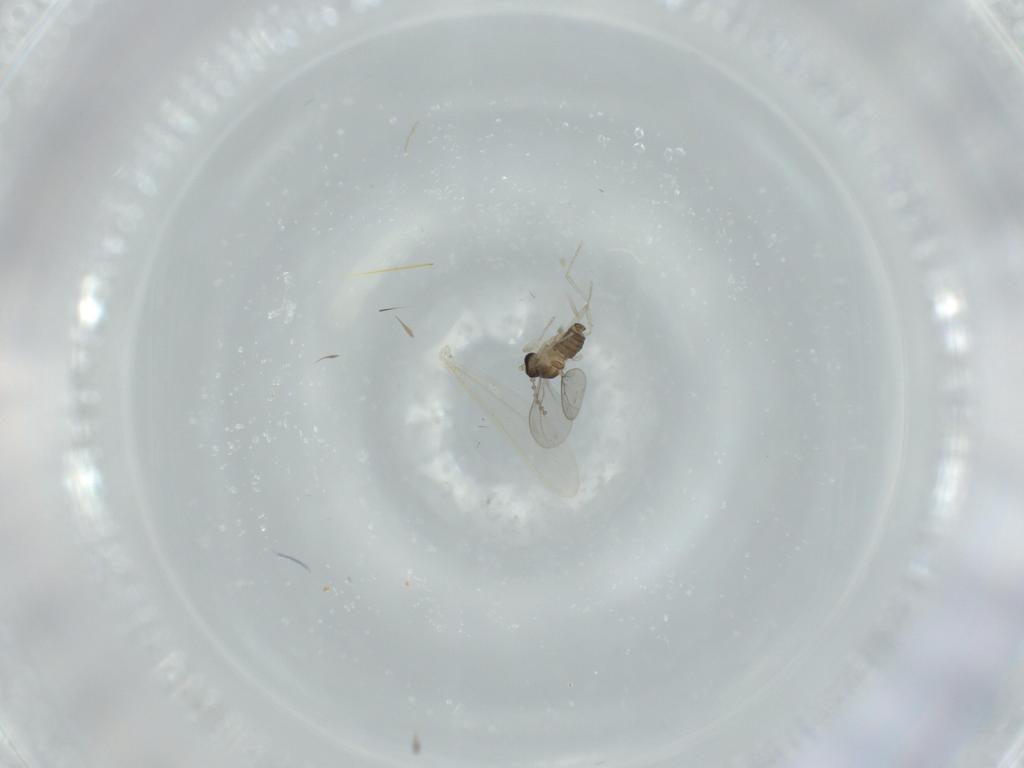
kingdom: Animalia
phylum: Arthropoda
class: Insecta
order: Diptera
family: Cecidomyiidae
